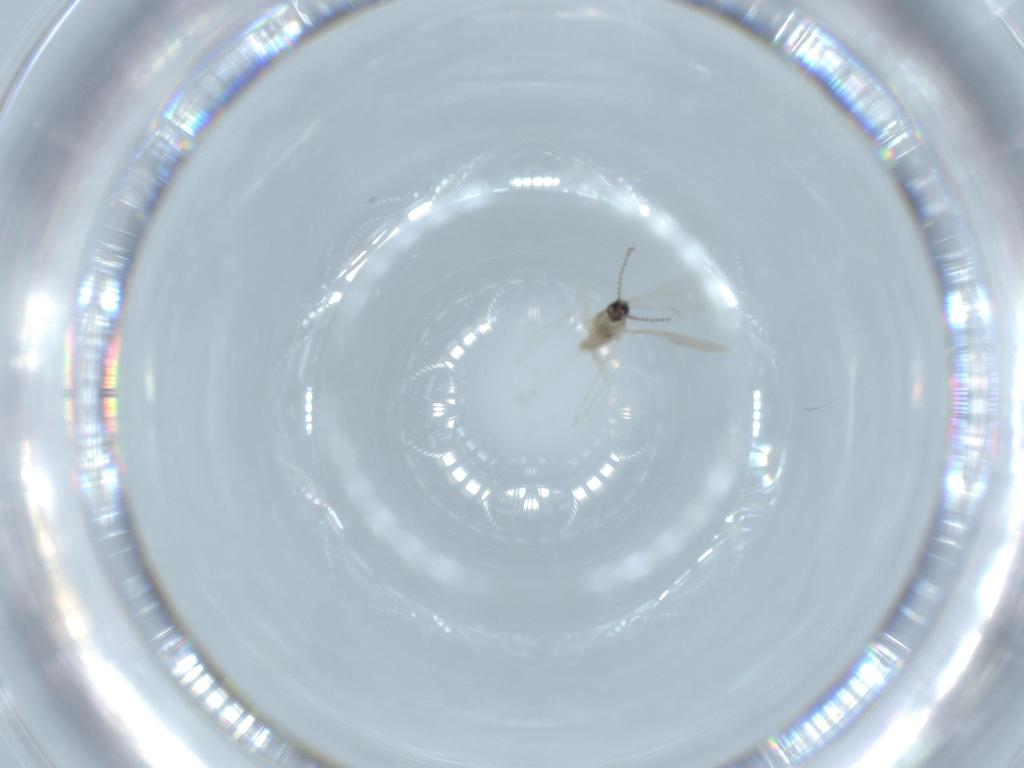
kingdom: Animalia
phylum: Arthropoda
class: Insecta
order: Diptera
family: Cecidomyiidae
